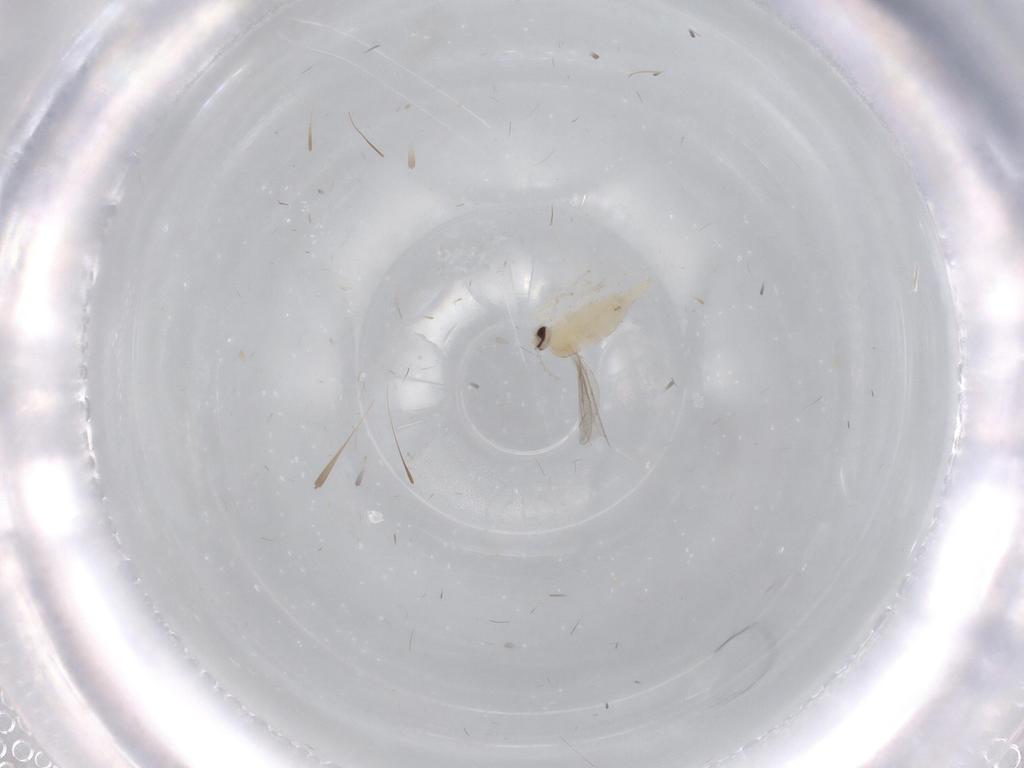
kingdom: Animalia
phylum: Arthropoda
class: Insecta
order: Diptera
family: Cecidomyiidae
